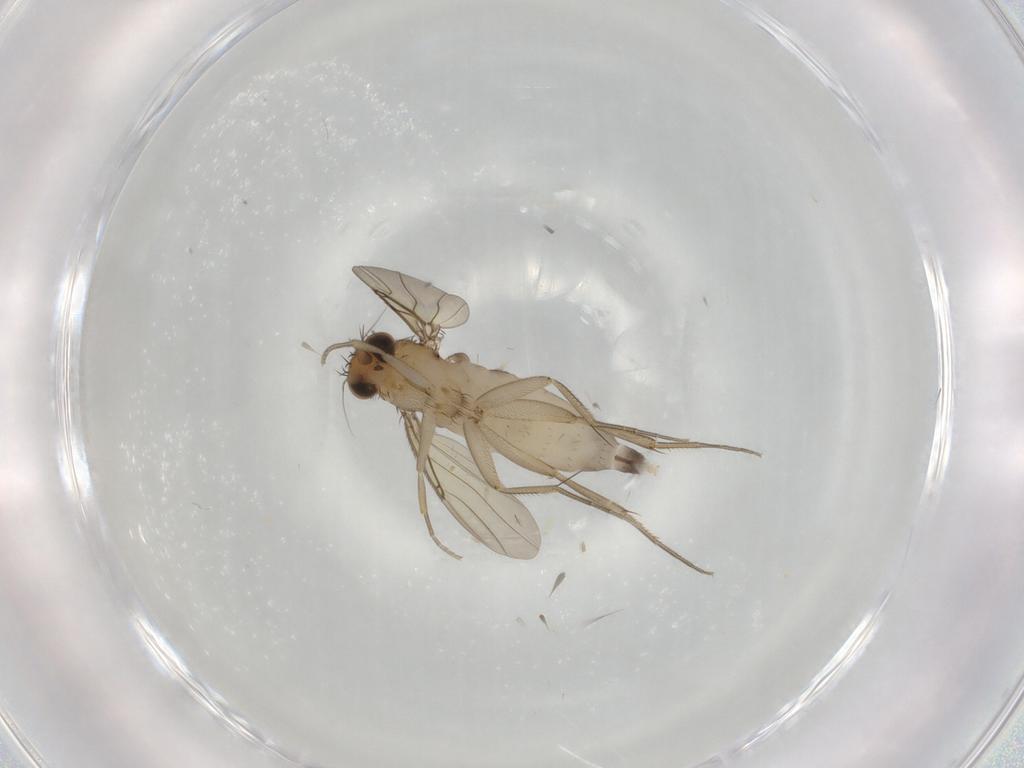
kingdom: Animalia
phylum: Arthropoda
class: Insecta
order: Diptera
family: Phoridae
